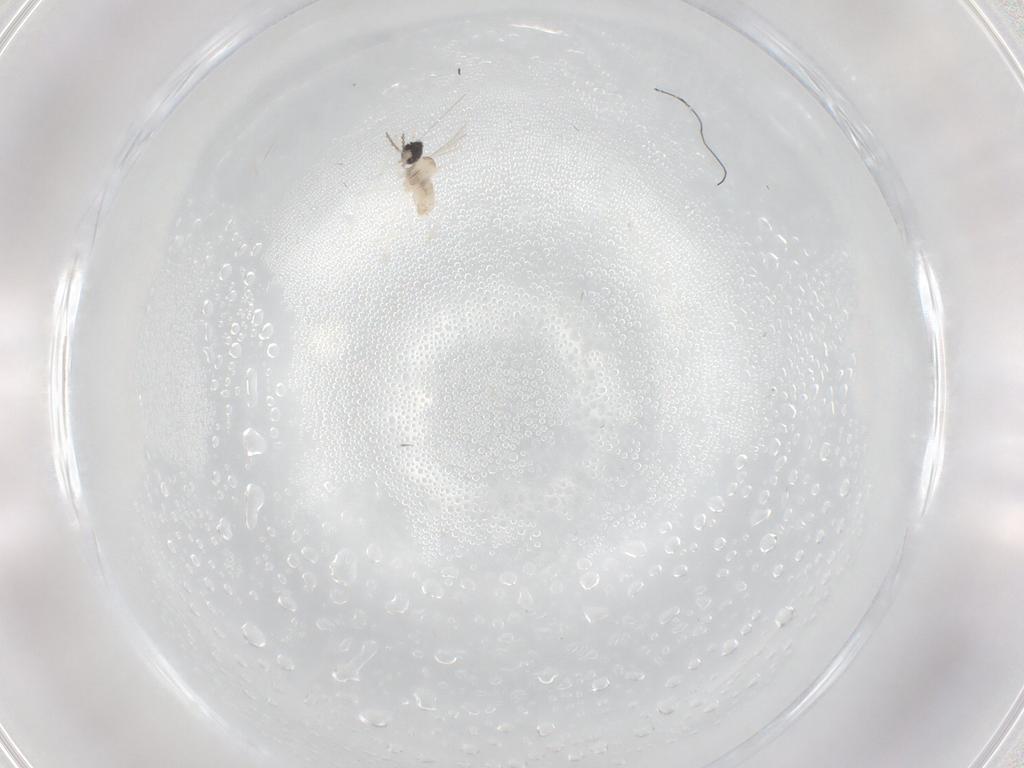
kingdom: Animalia
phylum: Arthropoda
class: Insecta
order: Diptera
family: Cecidomyiidae
